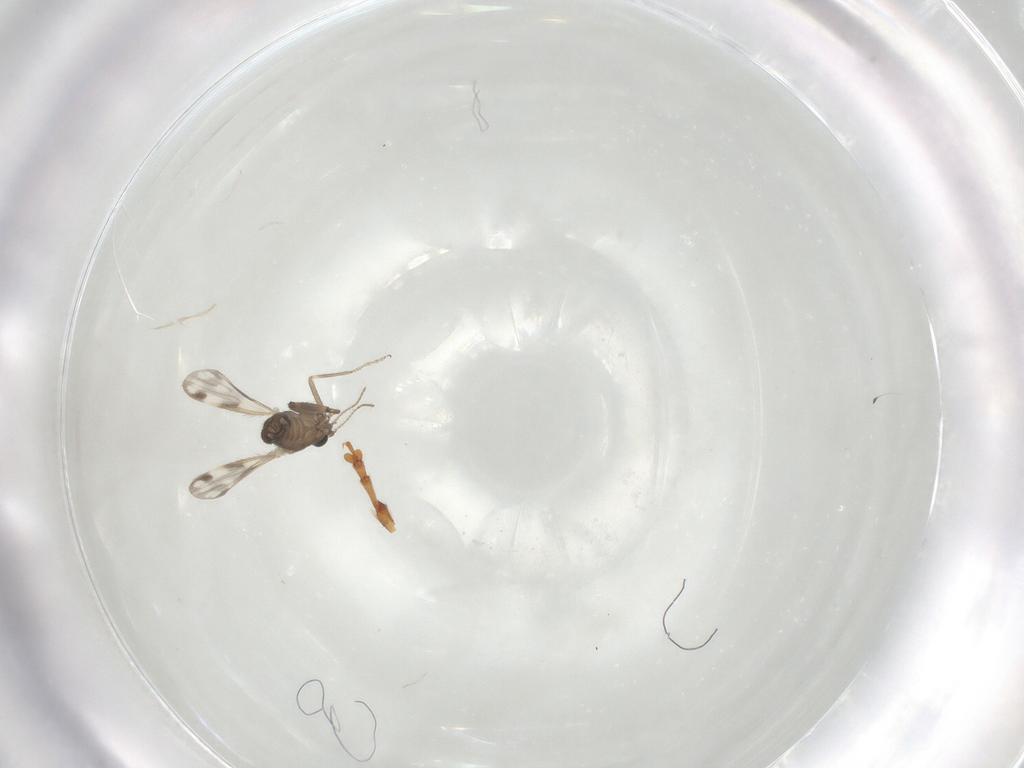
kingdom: Animalia
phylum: Arthropoda
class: Insecta
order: Diptera
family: Ceratopogonidae
